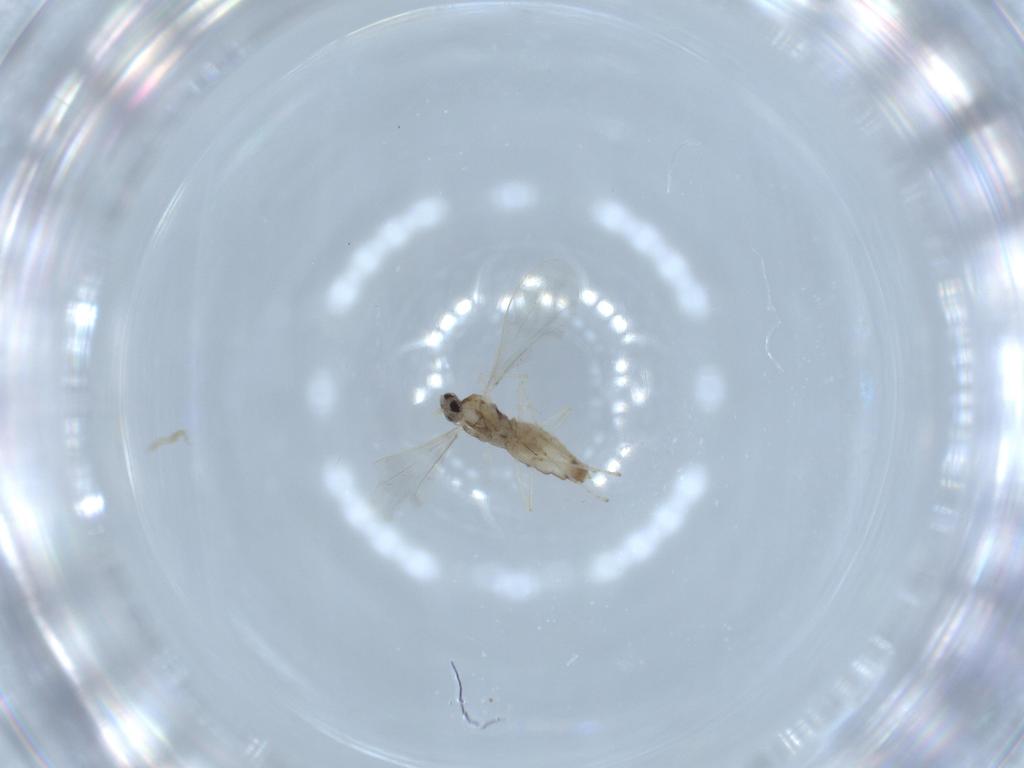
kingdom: Animalia
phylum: Arthropoda
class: Insecta
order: Diptera
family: Cecidomyiidae
